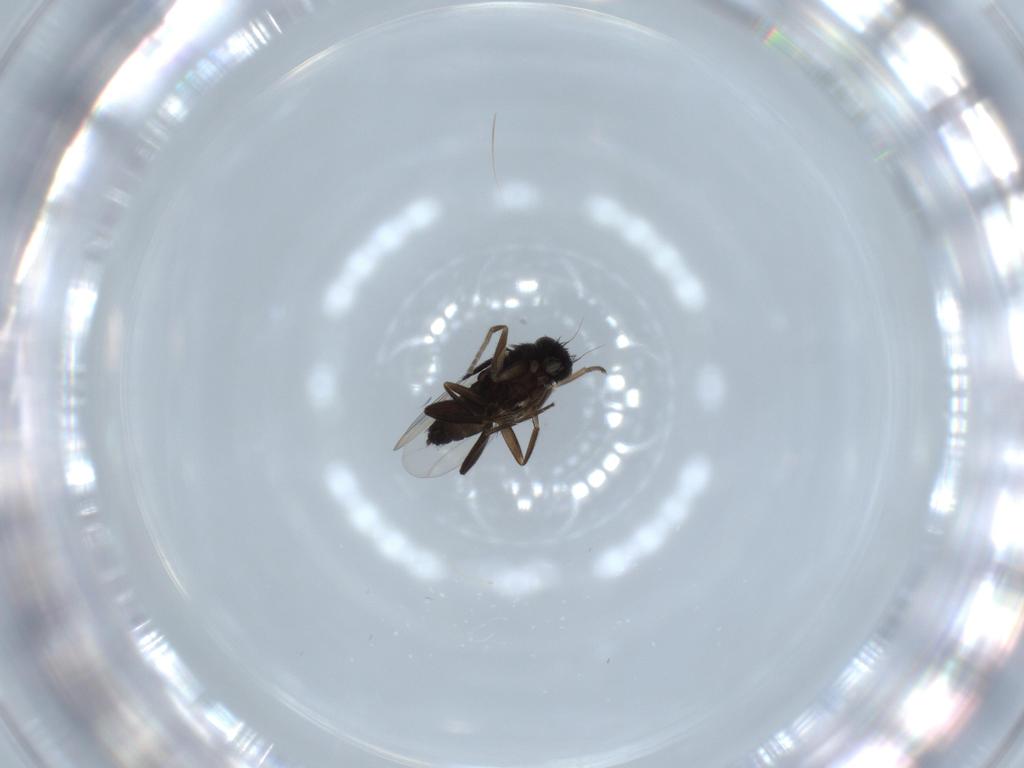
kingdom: Animalia
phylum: Arthropoda
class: Insecta
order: Diptera
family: Phoridae
